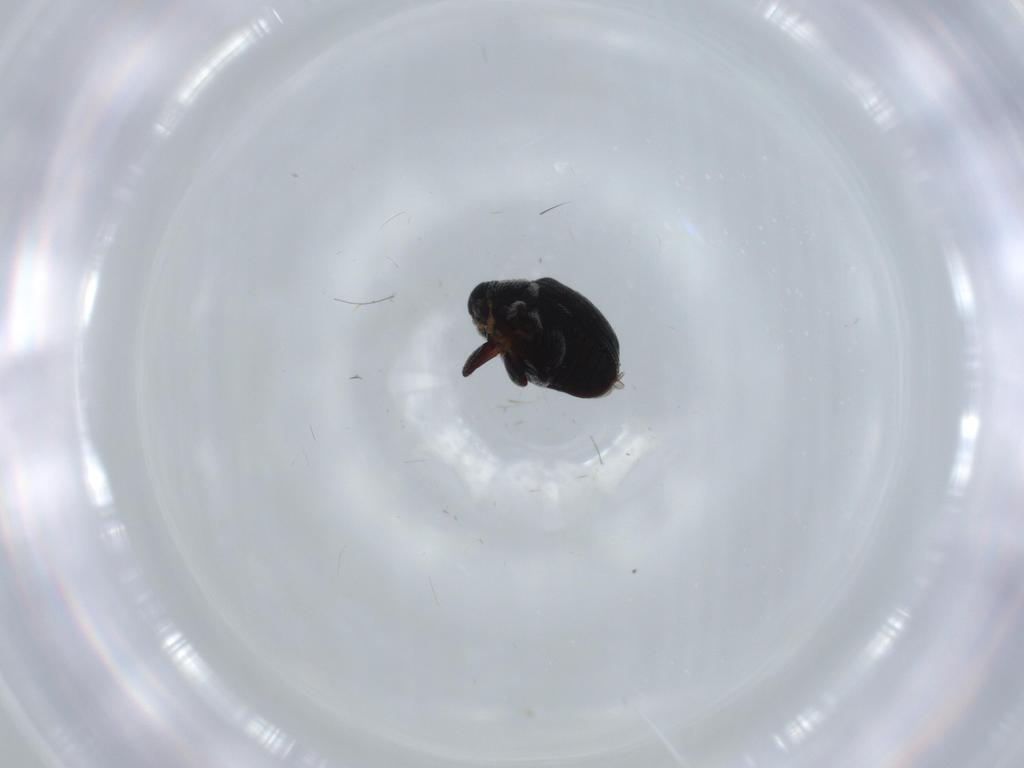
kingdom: Animalia
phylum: Arthropoda
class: Insecta
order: Coleoptera
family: Curculionidae
